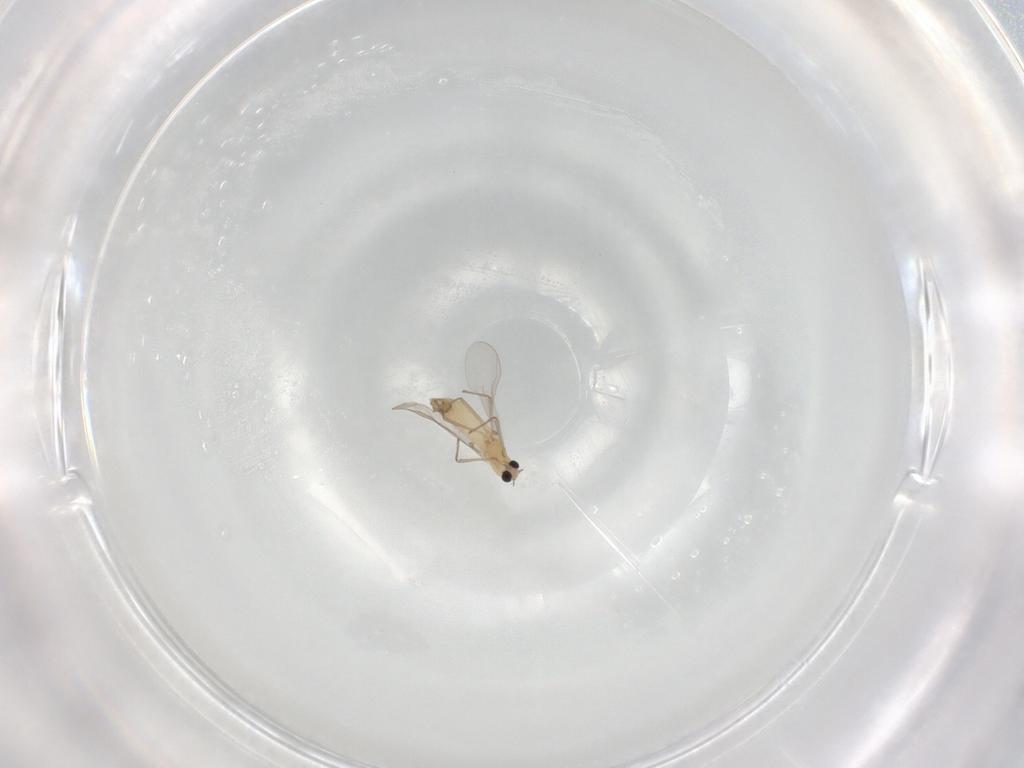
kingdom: Animalia
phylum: Arthropoda
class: Insecta
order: Diptera
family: Chironomidae
